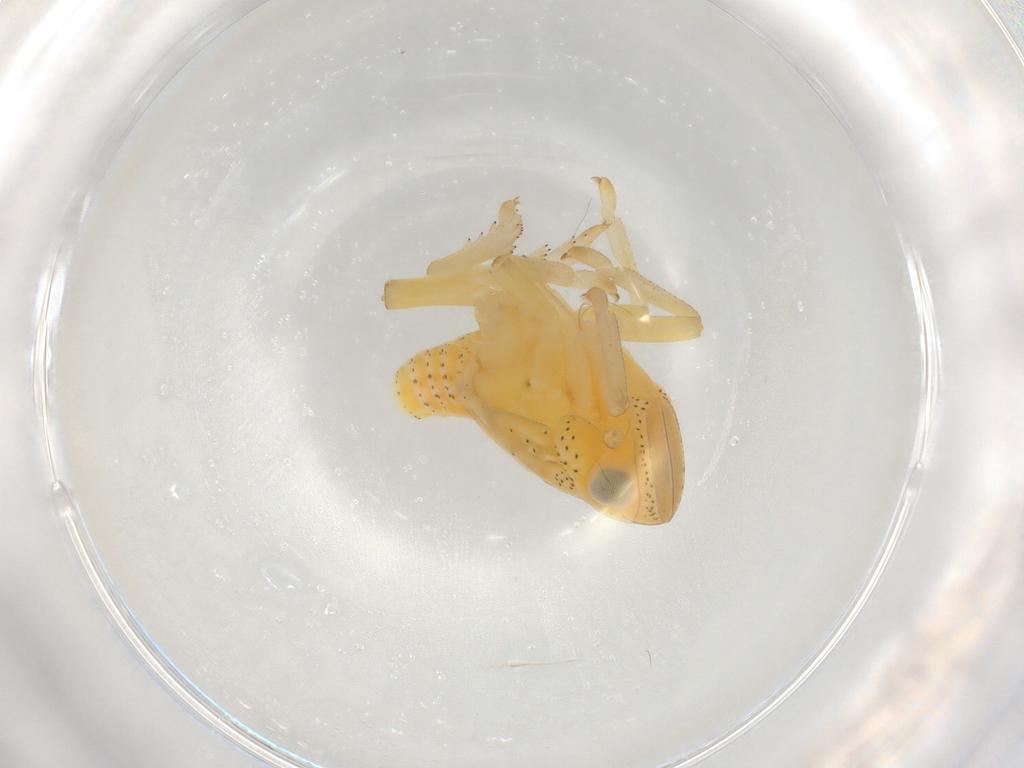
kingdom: Animalia
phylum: Arthropoda
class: Insecta
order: Hemiptera
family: Tropiduchidae
